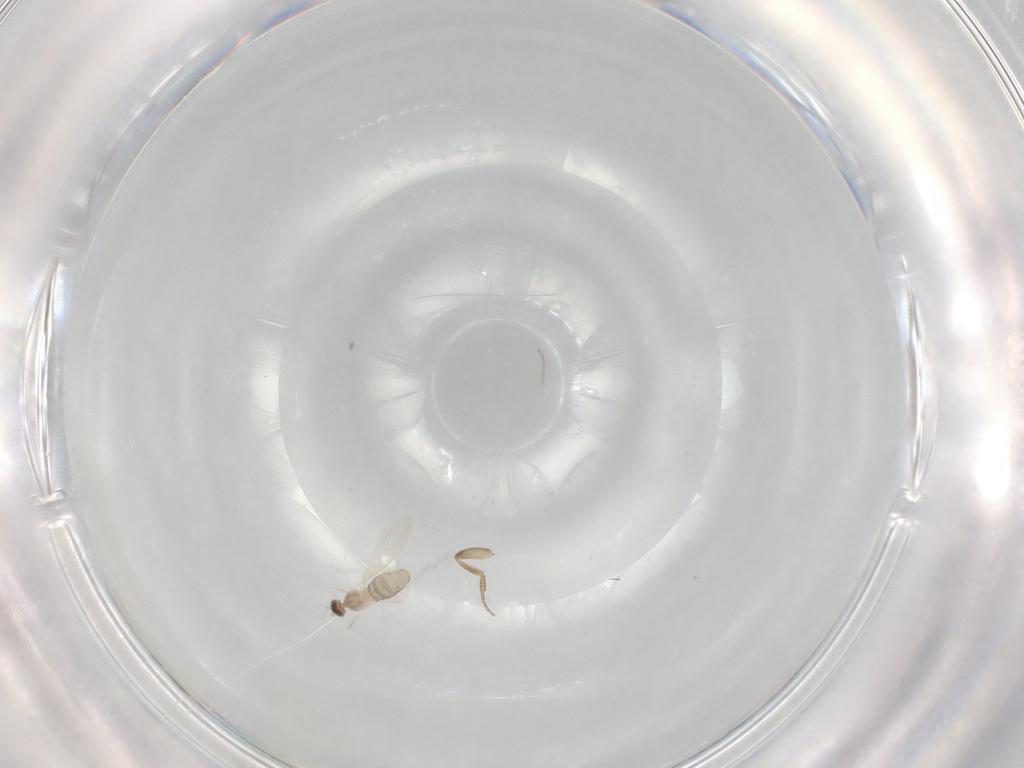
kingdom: Animalia
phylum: Arthropoda
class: Insecta
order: Diptera
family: Cecidomyiidae
